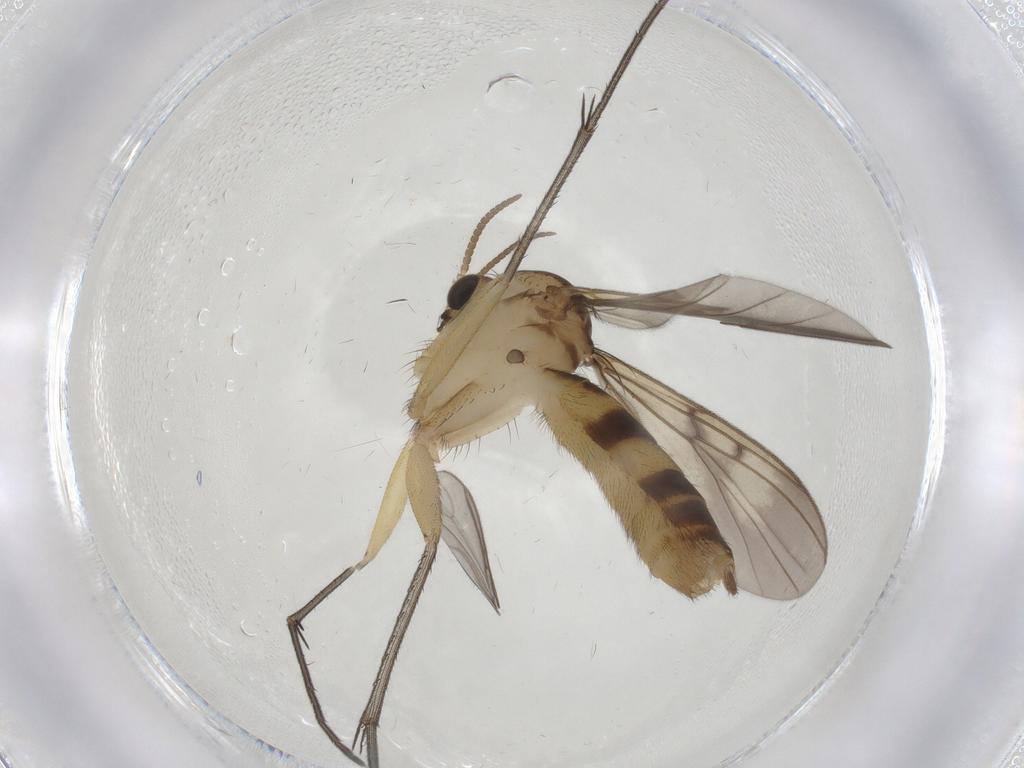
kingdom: Animalia
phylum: Arthropoda
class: Insecta
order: Diptera
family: Mycetophilidae
